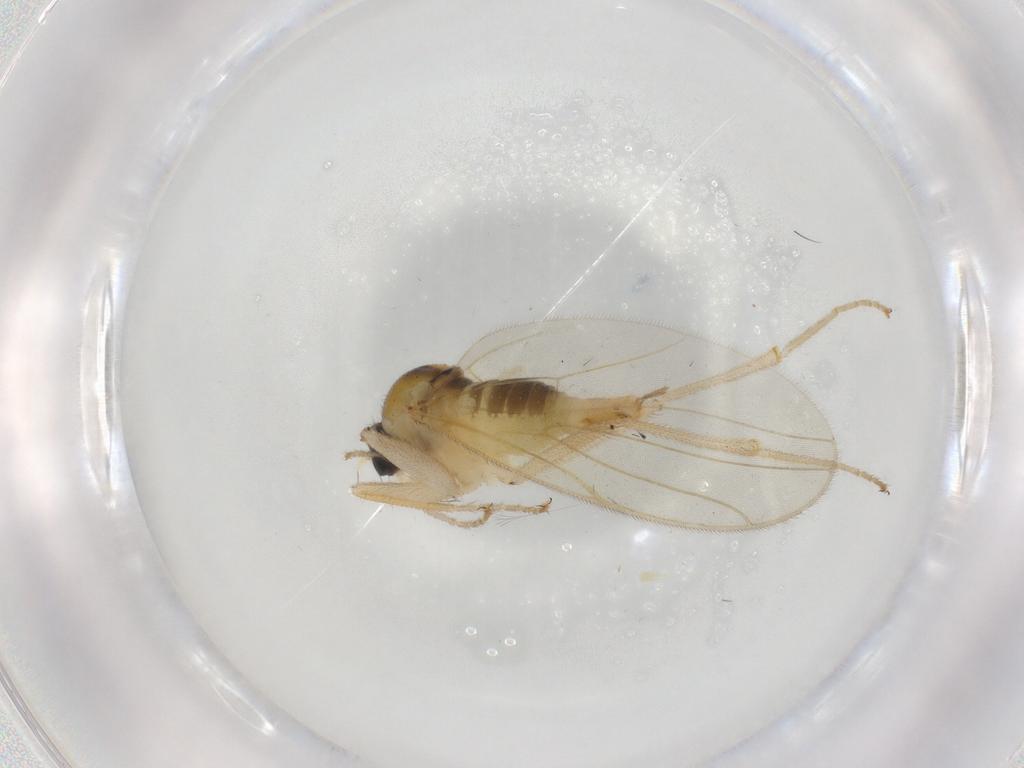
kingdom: Animalia
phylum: Arthropoda
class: Insecta
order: Diptera
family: Hybotidae
